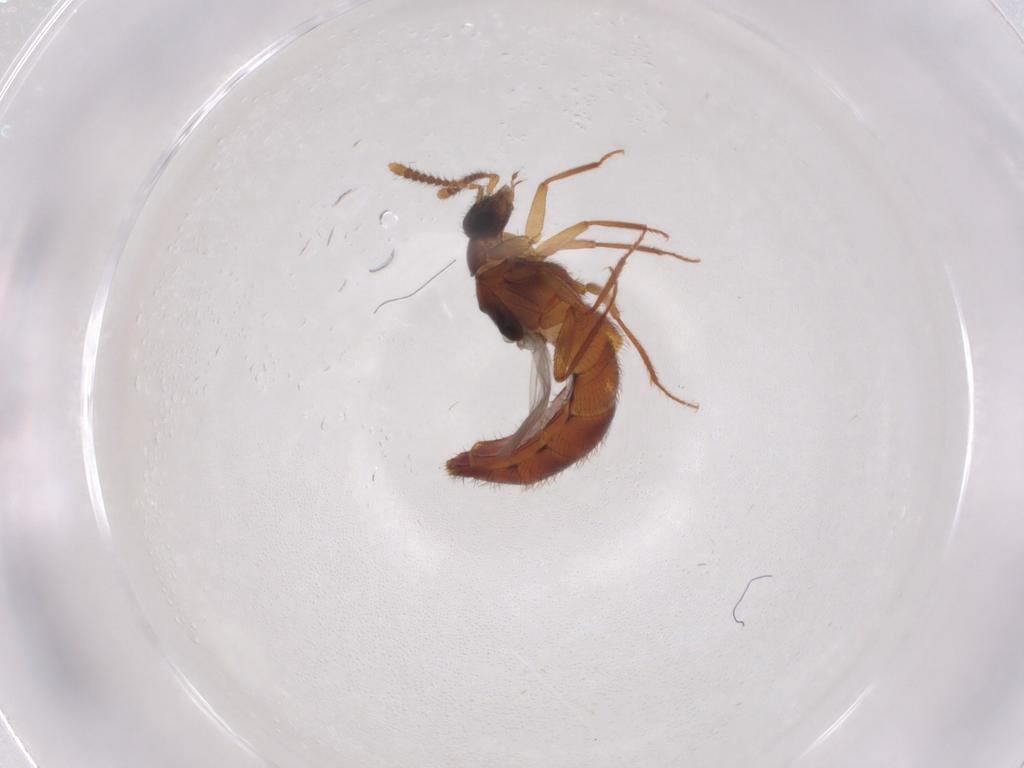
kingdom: Animalia
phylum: Arthropoda
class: Insecta
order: Coleoptera
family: Staphylinidae
